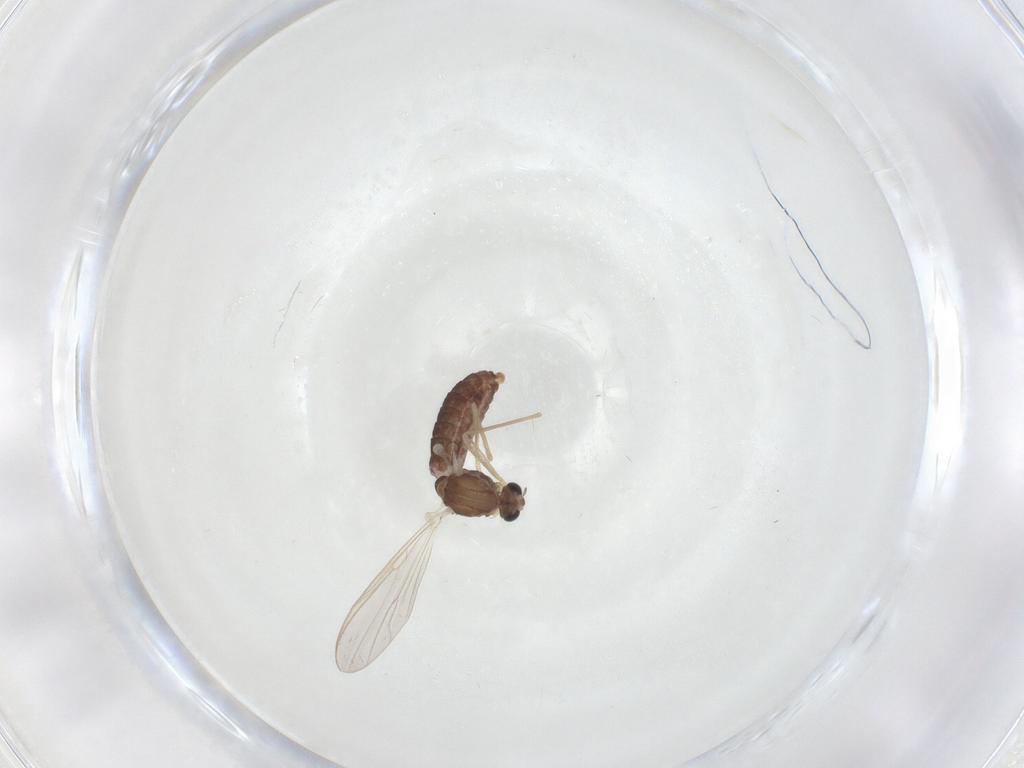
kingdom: Animalia
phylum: Arthropoda
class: Insecta
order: Diptera
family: Chironomidae
